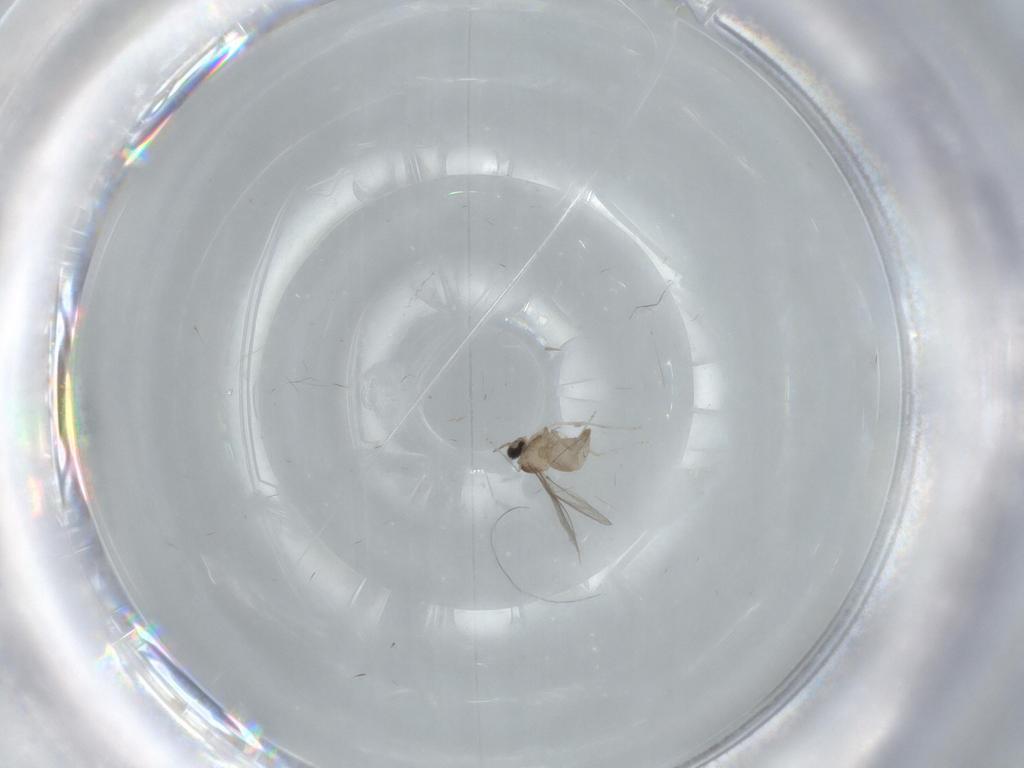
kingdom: Animalia
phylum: Arthropoda
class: Insecta
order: Diptera
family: Sciaridae
